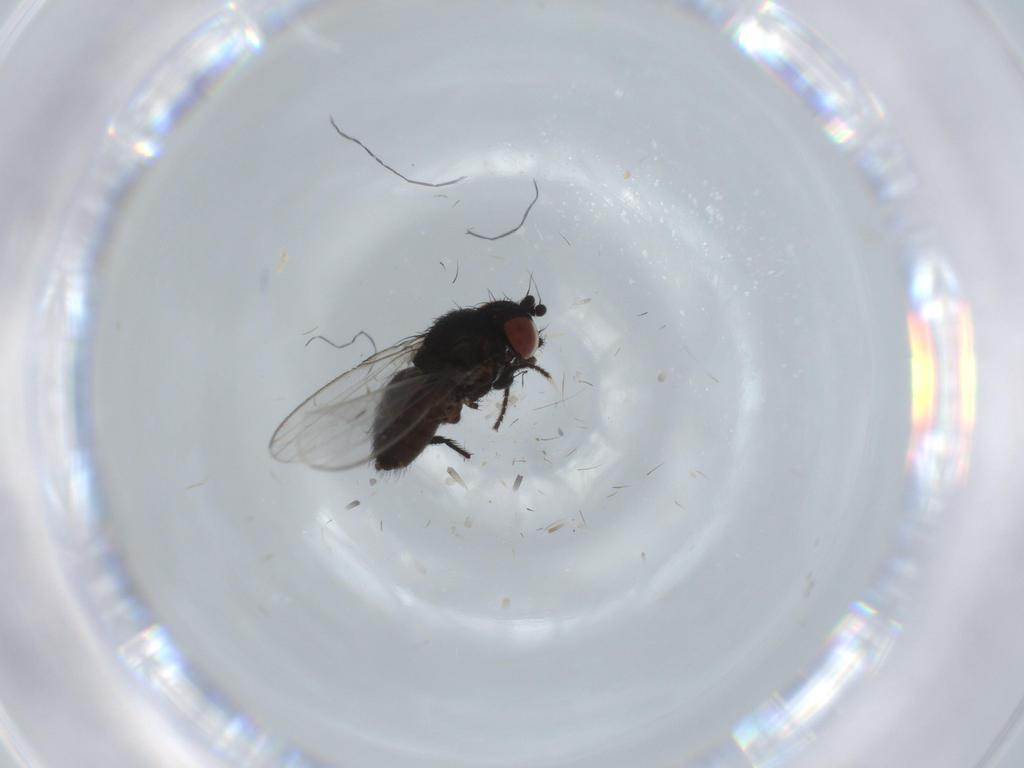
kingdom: Animalia
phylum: Arthropoda
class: Insecta
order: Diptera
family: Milichiidae
